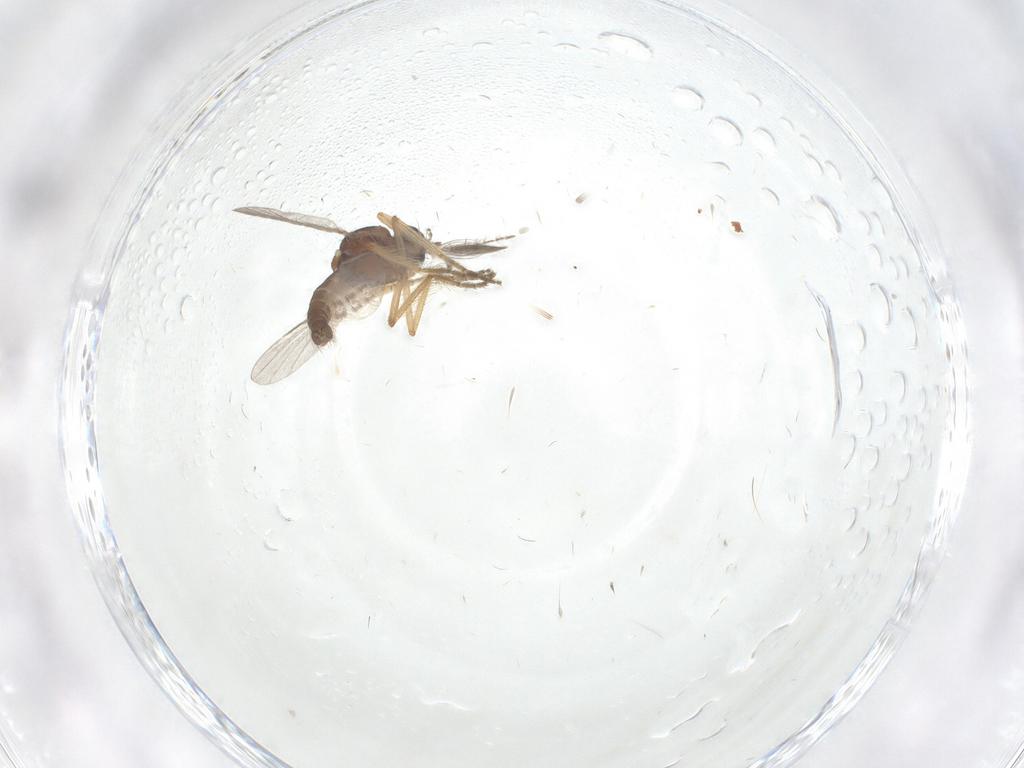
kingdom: Animalia
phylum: Arthropoda
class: Insecta
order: Diptera
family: Ceratopogonidae
